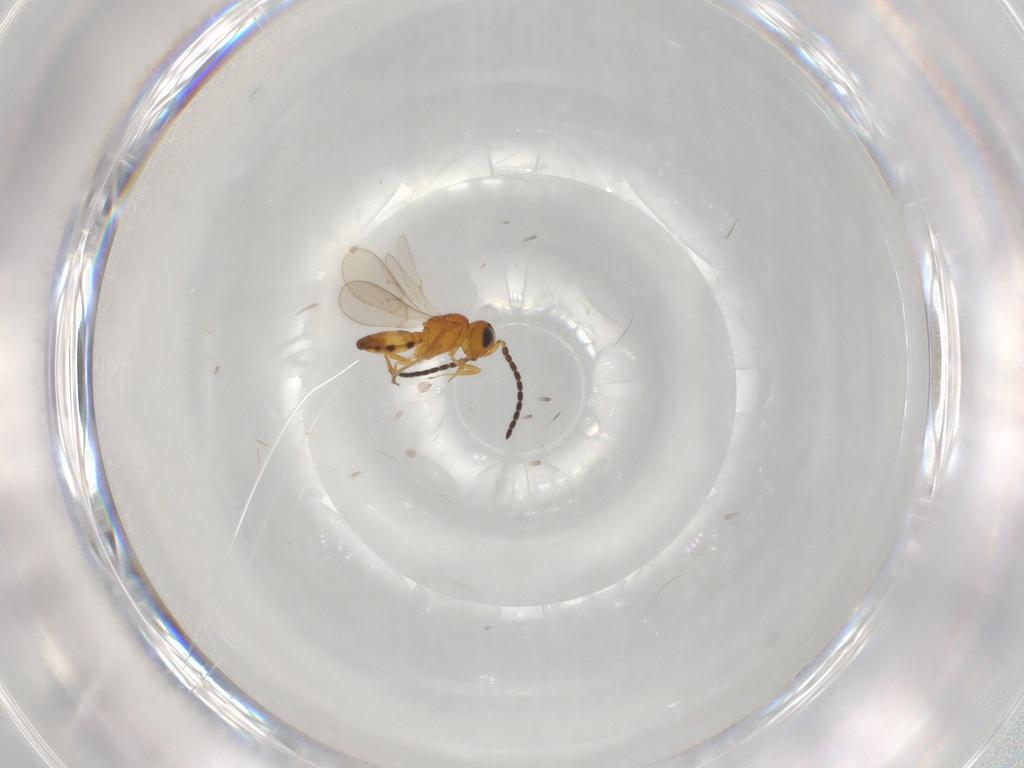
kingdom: Animalia
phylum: Arthropoda
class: Insecta
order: Hymenoptera
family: Scelionidae
